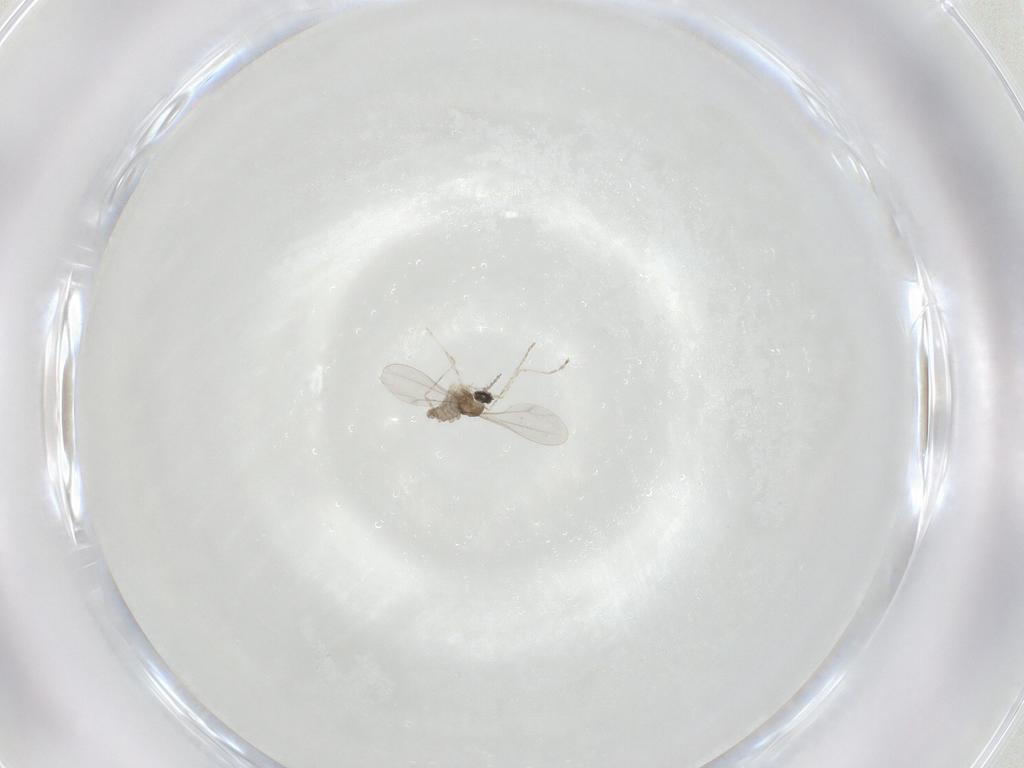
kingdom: Animalia
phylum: Arthropoda
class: Insecta
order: Diptera
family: Cecidomyiidae
